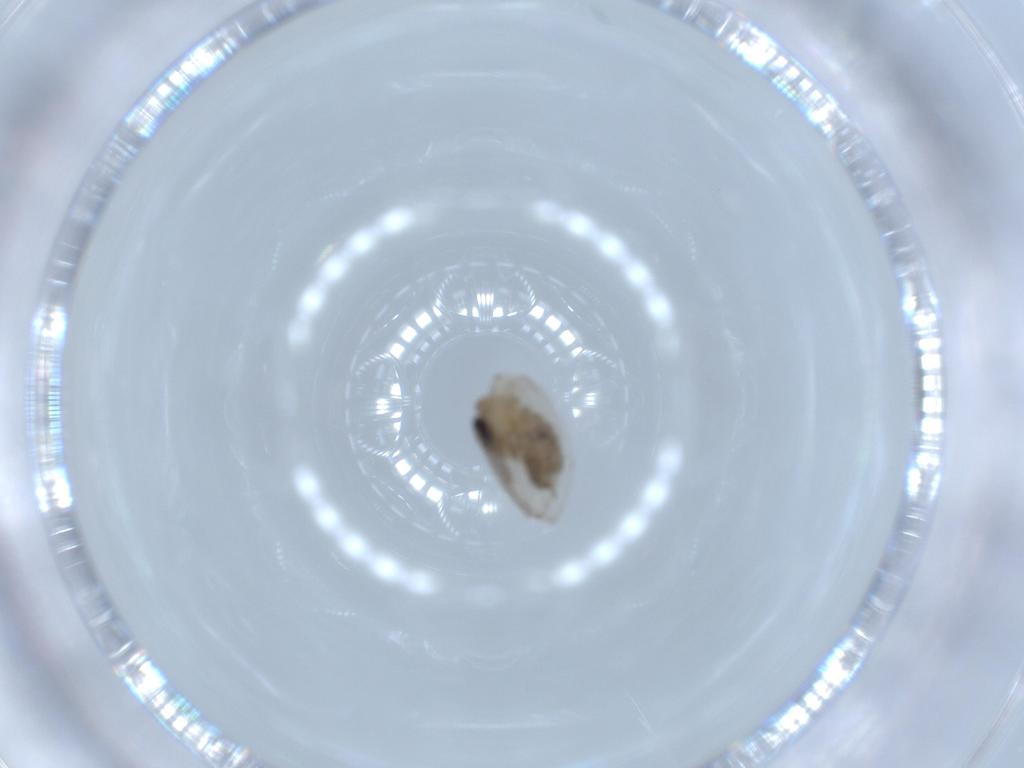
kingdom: Animalia
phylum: Arthropoda
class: Insecta
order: Diptera
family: Psychodidae
